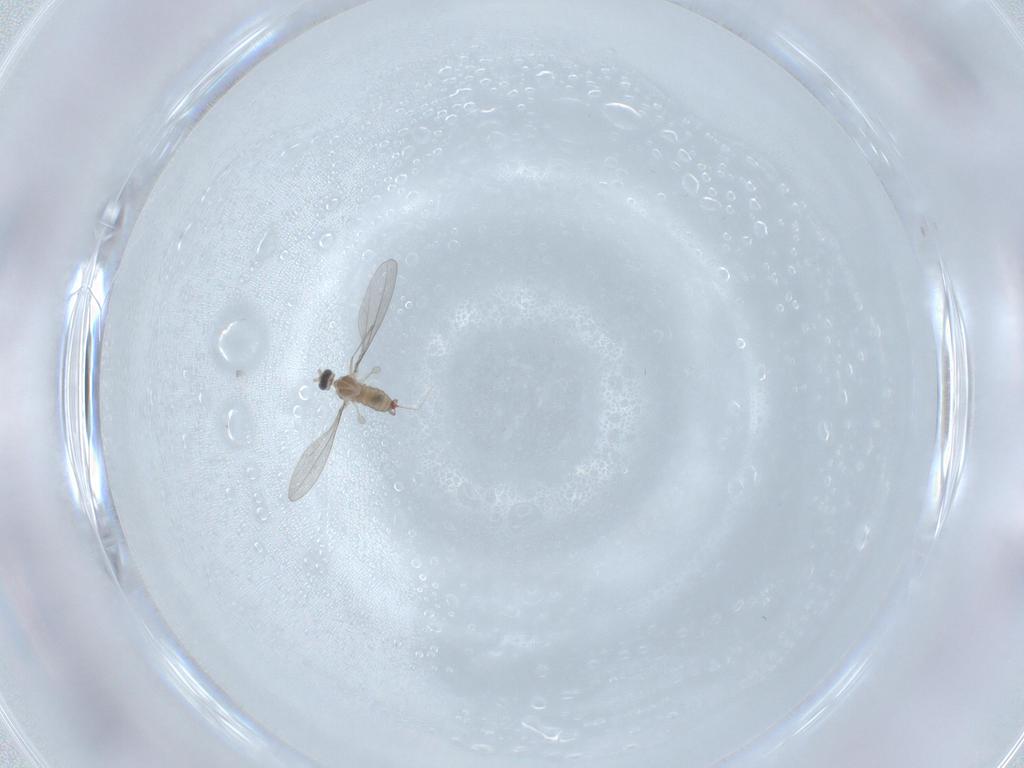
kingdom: Animalia
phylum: Arthropoda
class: Insecta
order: Diptera
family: Cecidomyiidae
